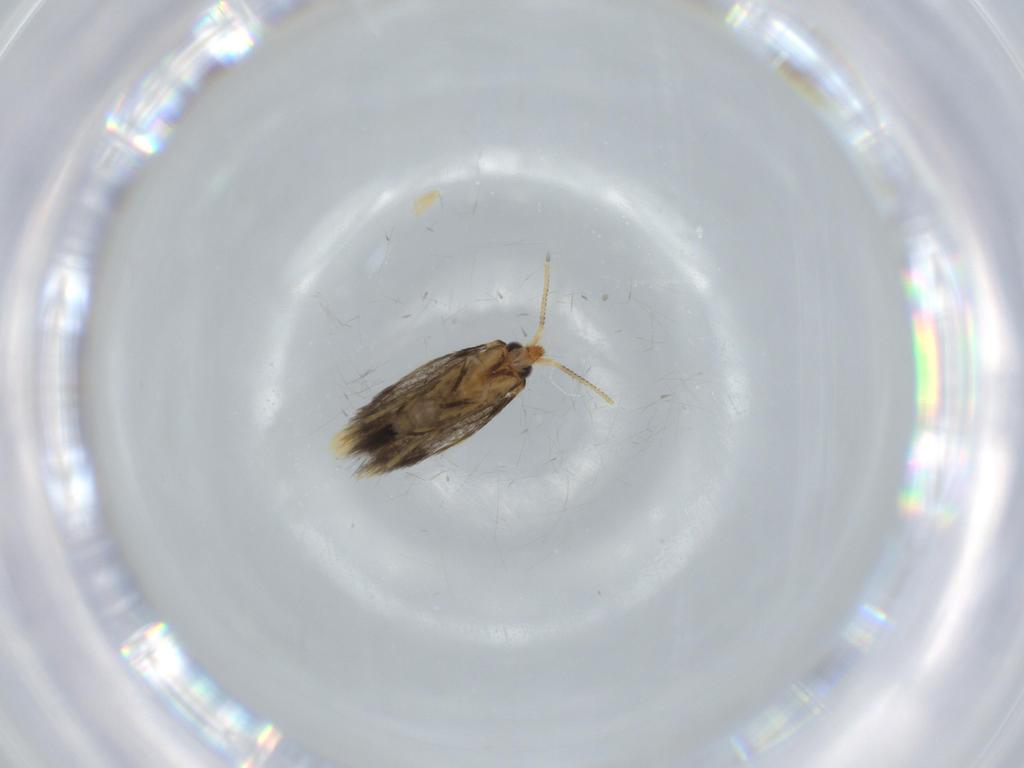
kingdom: Animalia
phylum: Arthropoda
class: Insecta
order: Lepidoptera
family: Copromorphidae
